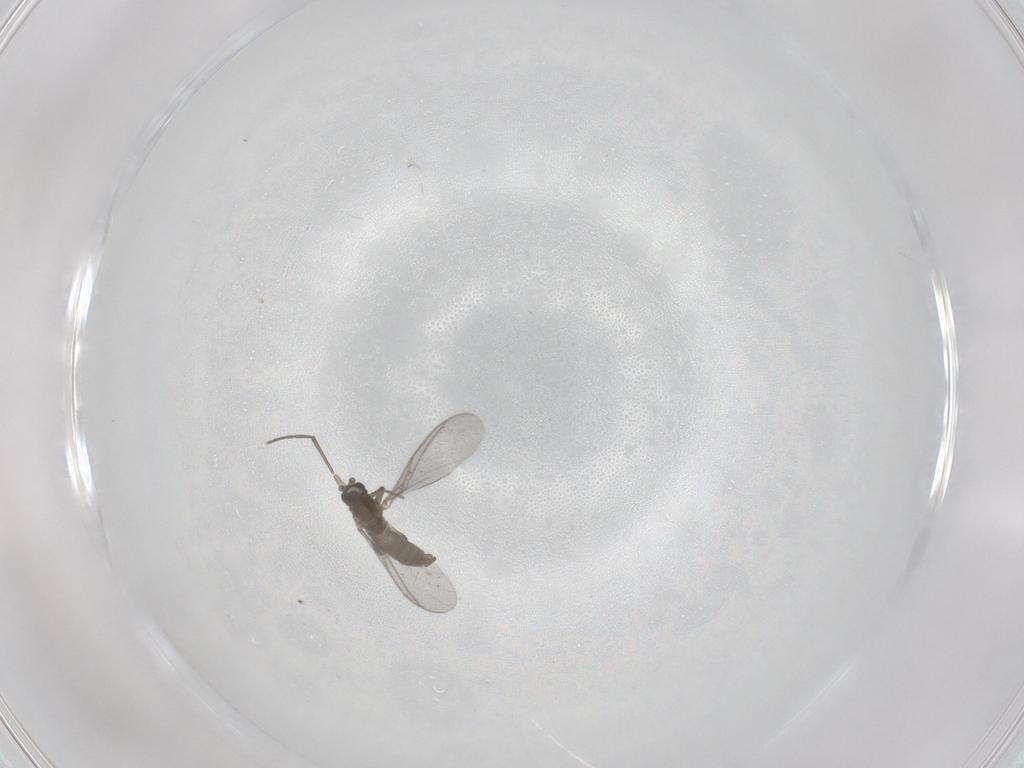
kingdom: Animalia
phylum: Arthropoda
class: Insecta
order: Diptera
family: Sciaridae
